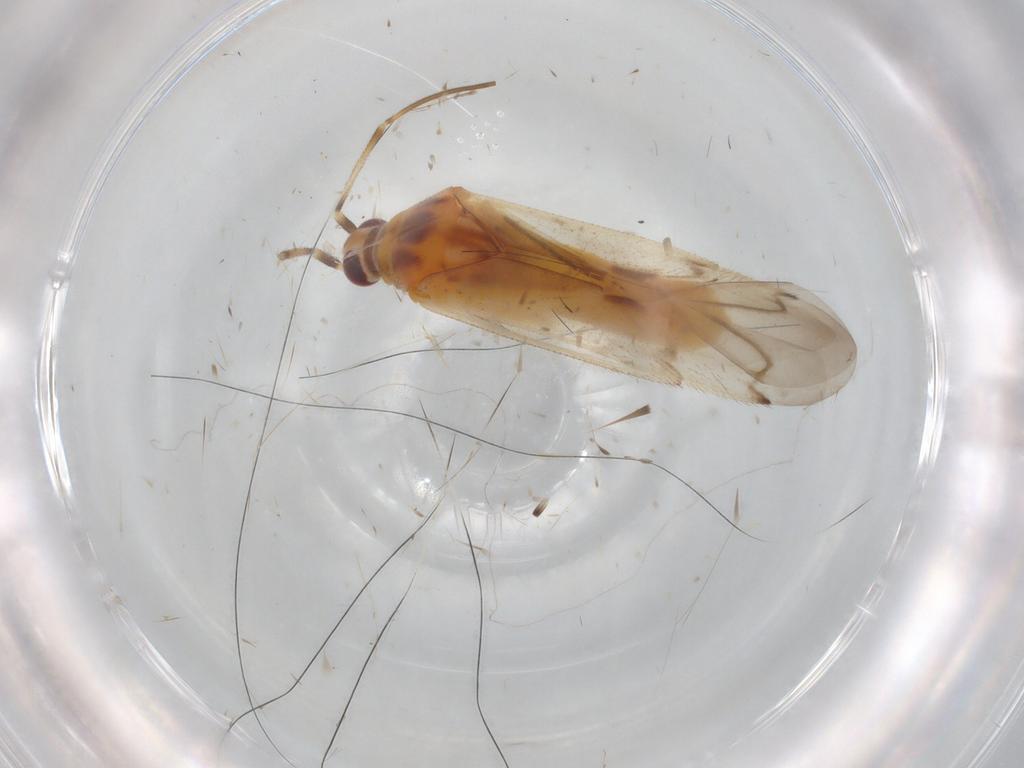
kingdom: Animalia
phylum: Arthropoda
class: Insecta
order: Hemiptera
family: Miridae
